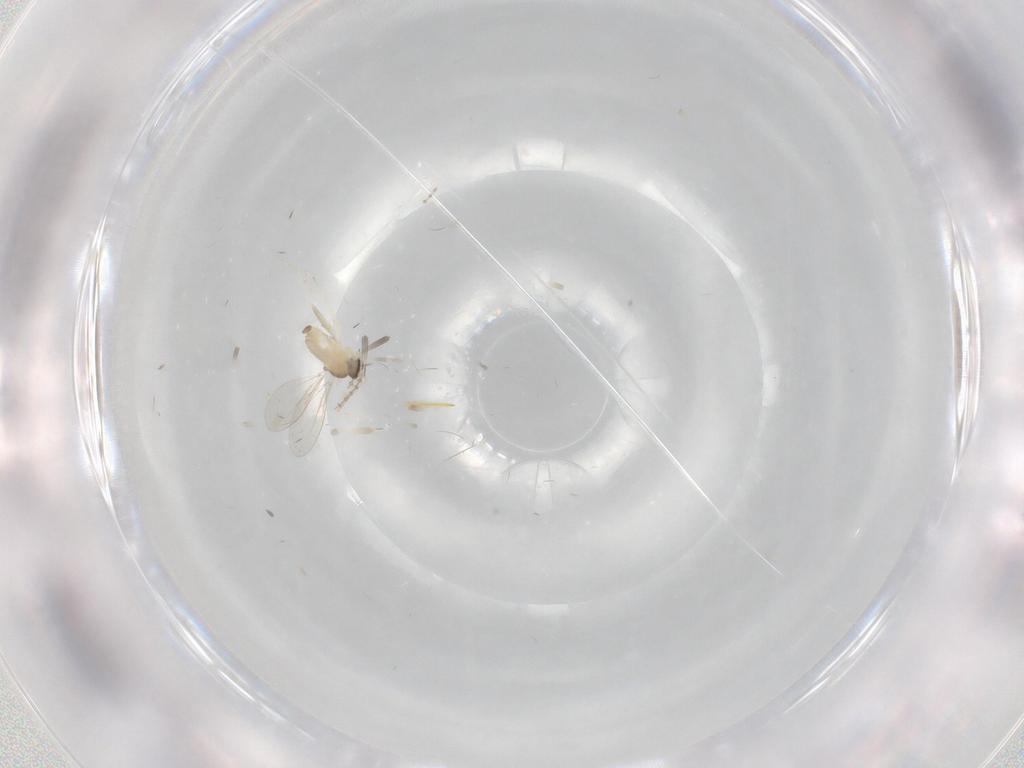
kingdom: Animalia
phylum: Arthropoda
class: Insecta
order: Diptera
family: Cecidomyiidae
